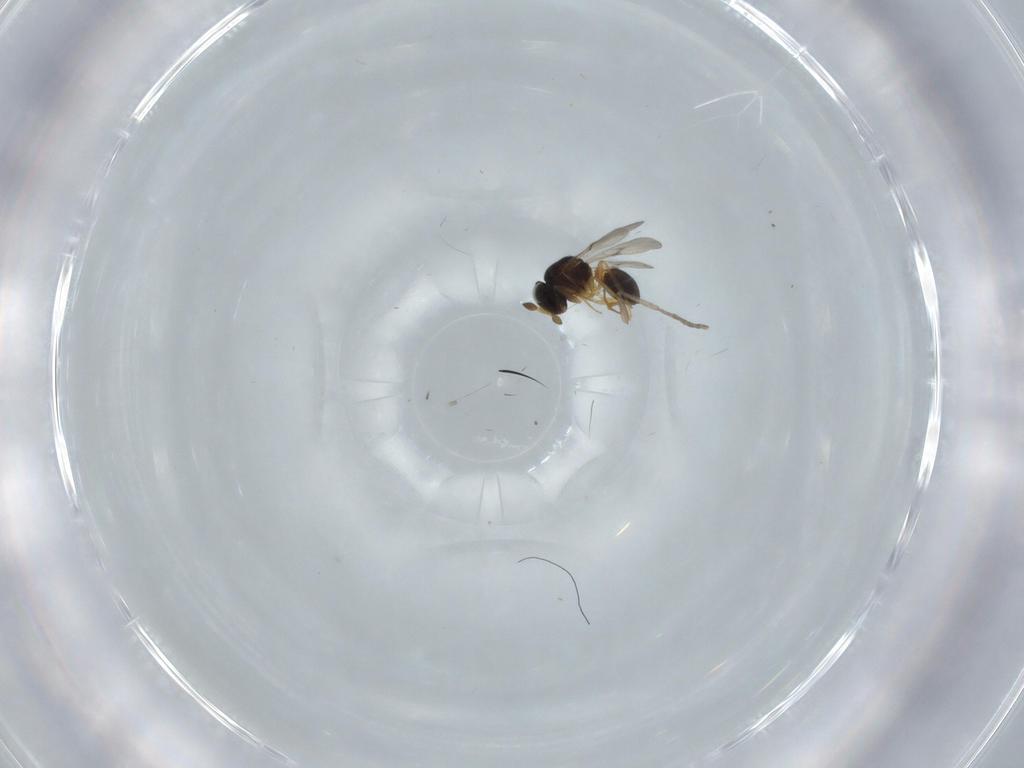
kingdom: Animalia
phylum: Arthropoda
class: Insecta
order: Hymenoptera
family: Scelionidae
